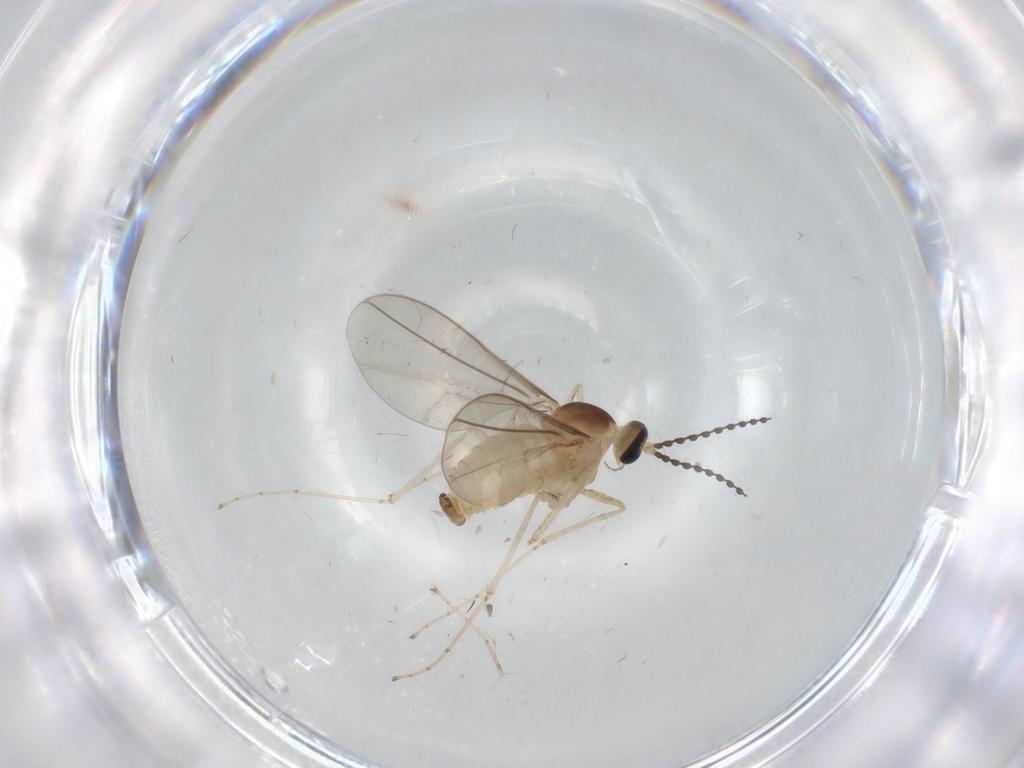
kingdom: Animalia
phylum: Arthropoda
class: Insecta
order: Diptera
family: Cecidomyiidae
